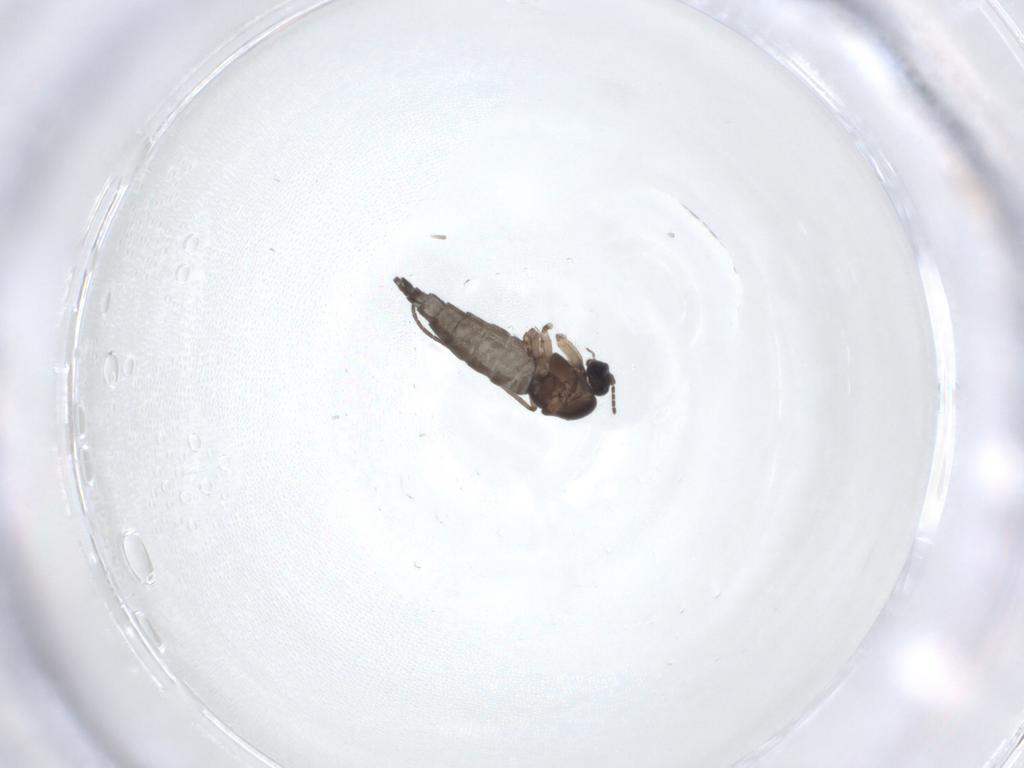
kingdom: Animalia
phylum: Arthropoda
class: Insecta
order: Diptera
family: Sciaridae
